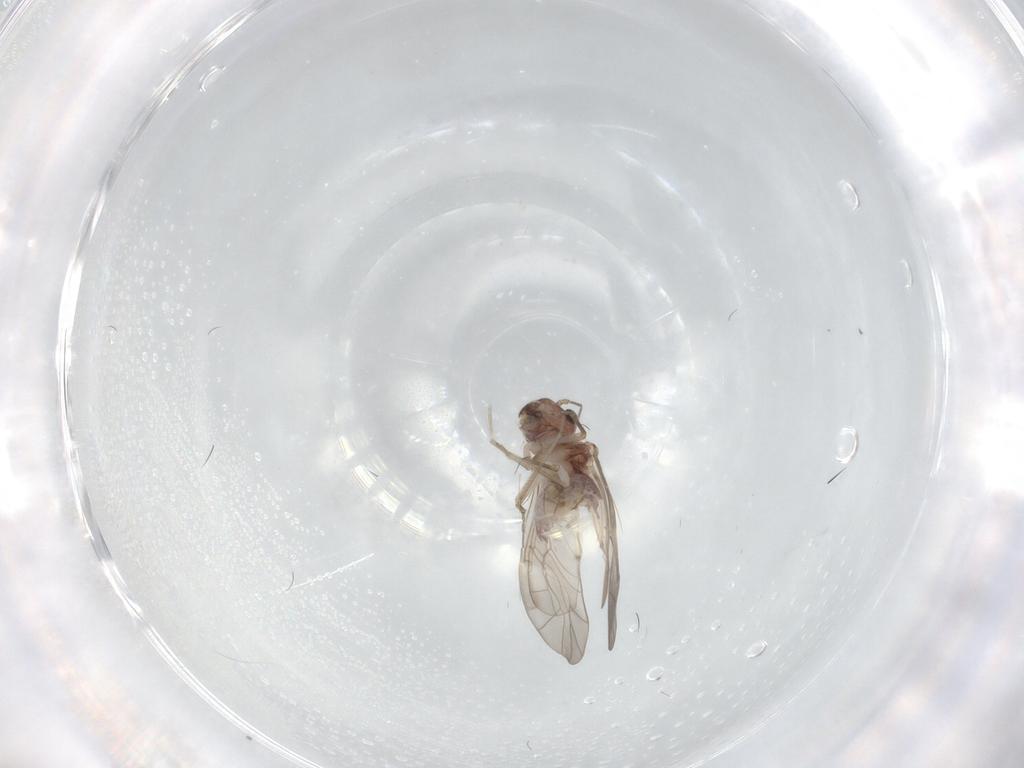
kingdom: Animalia
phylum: Arthropoda
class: Insecta
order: Psocodea
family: Peripsocidae
